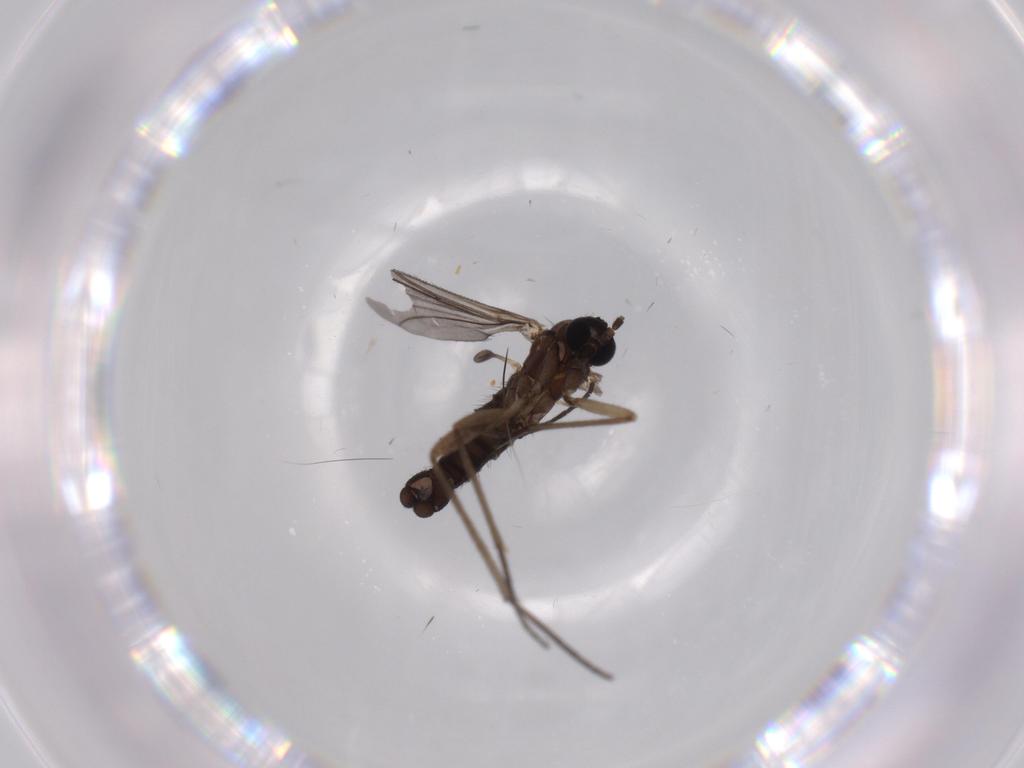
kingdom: Animalia
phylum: Arthropoda
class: Insecta
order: Diptera
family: Sciaridae
